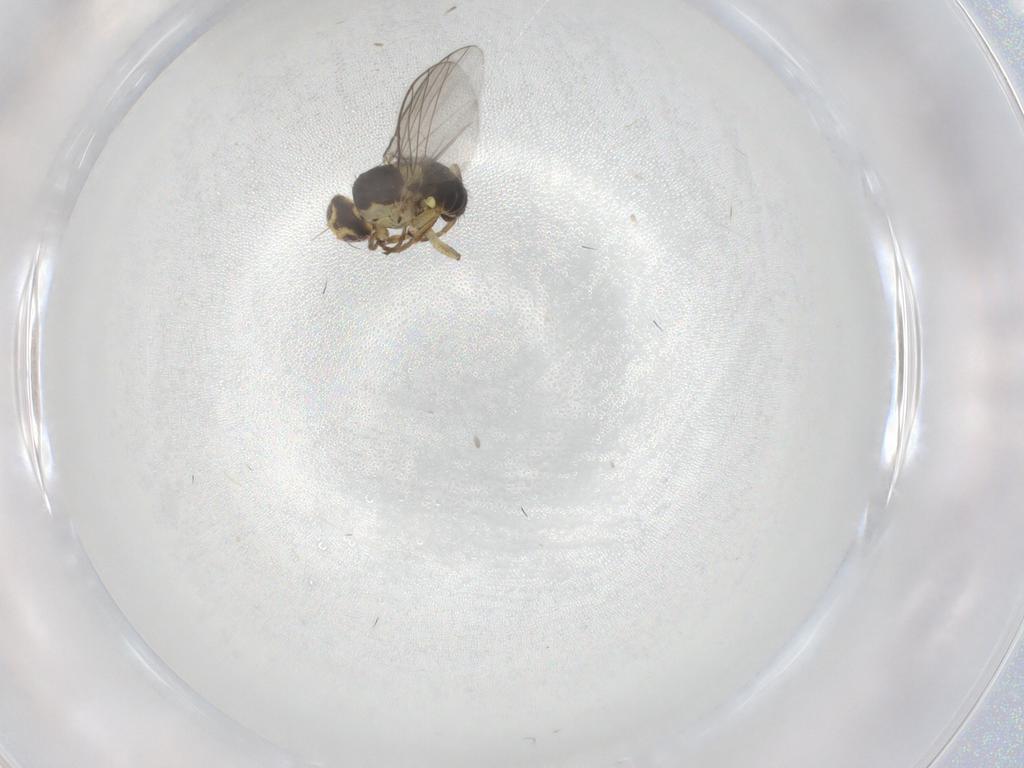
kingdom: Animalia
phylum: Arthropoda
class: Insecta
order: Diptera
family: Agromyzidae
